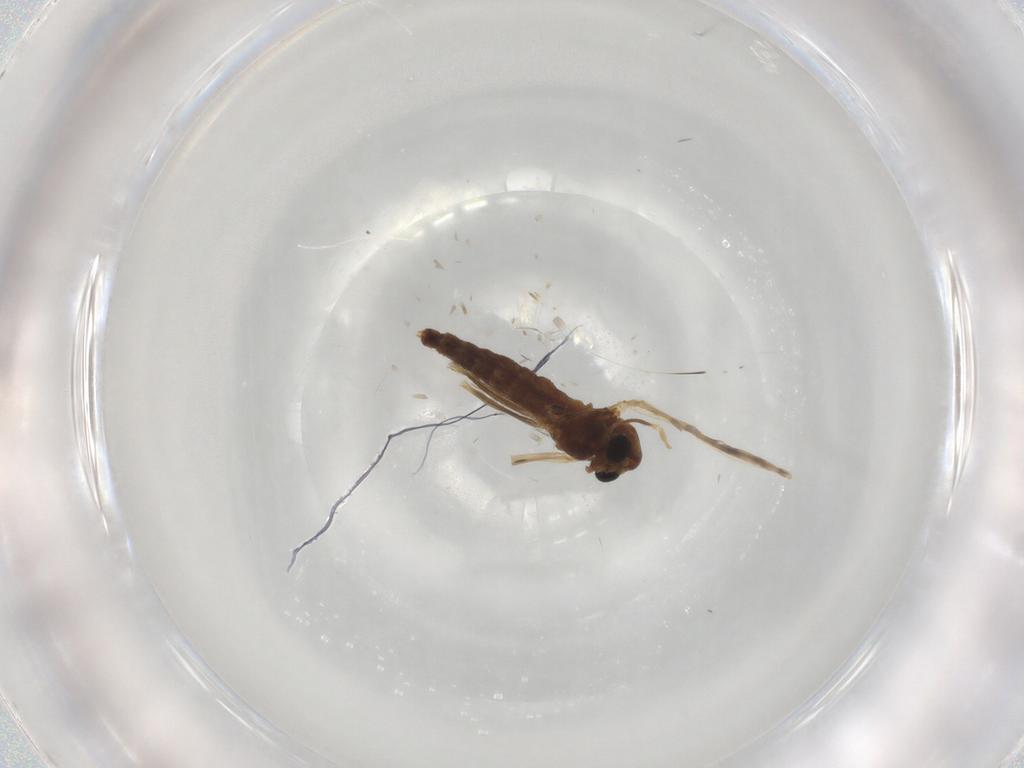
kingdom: Animalia
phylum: Arthropoda
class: Insecta
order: Diptera
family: Chironomidae
